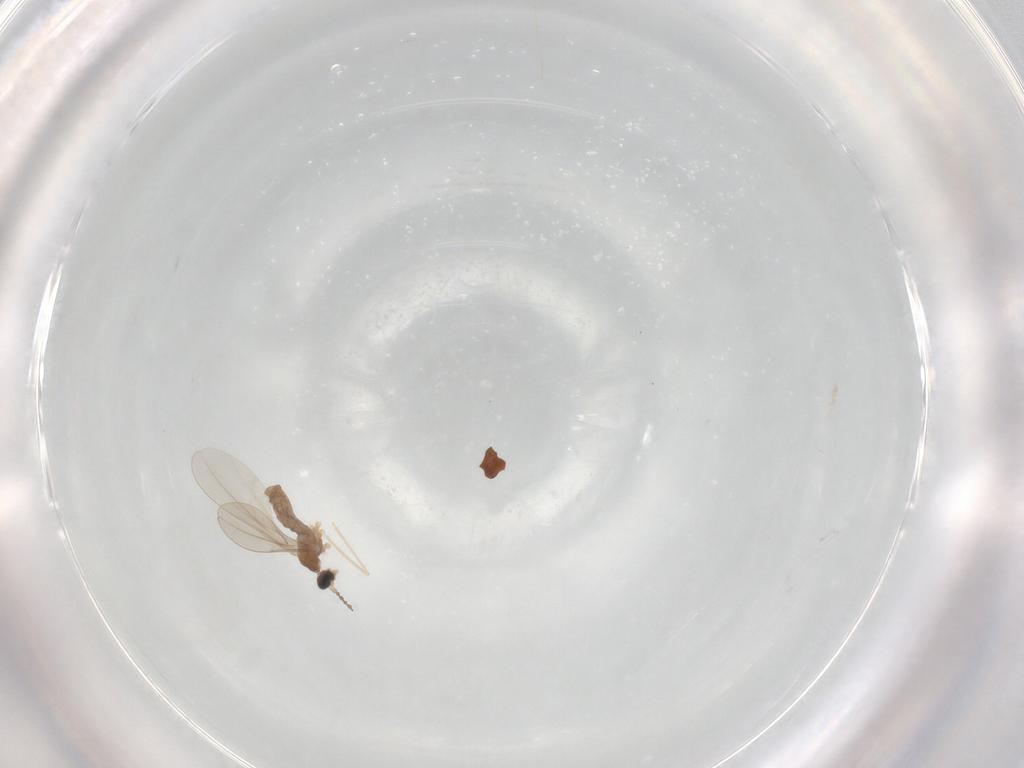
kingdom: Animalia
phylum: Arthropoda
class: Insecta
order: Diptera
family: Cecidomyiidae
